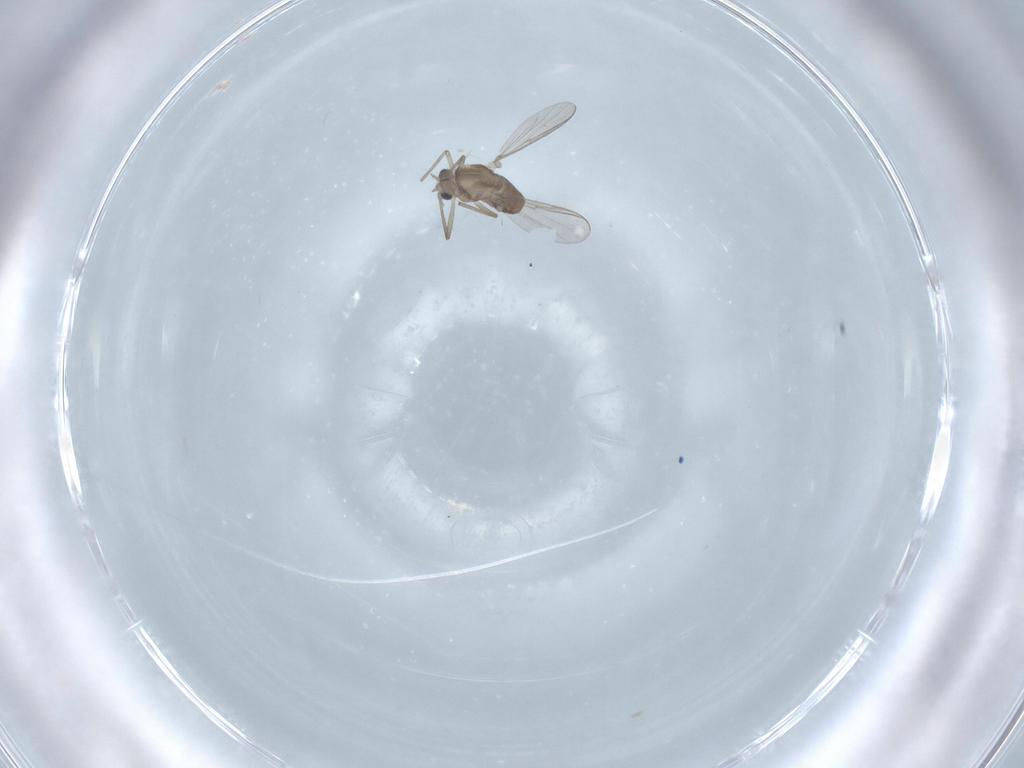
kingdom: Animalia
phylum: Arthropoda
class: Insecta
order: Diptera
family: Chironomidae
